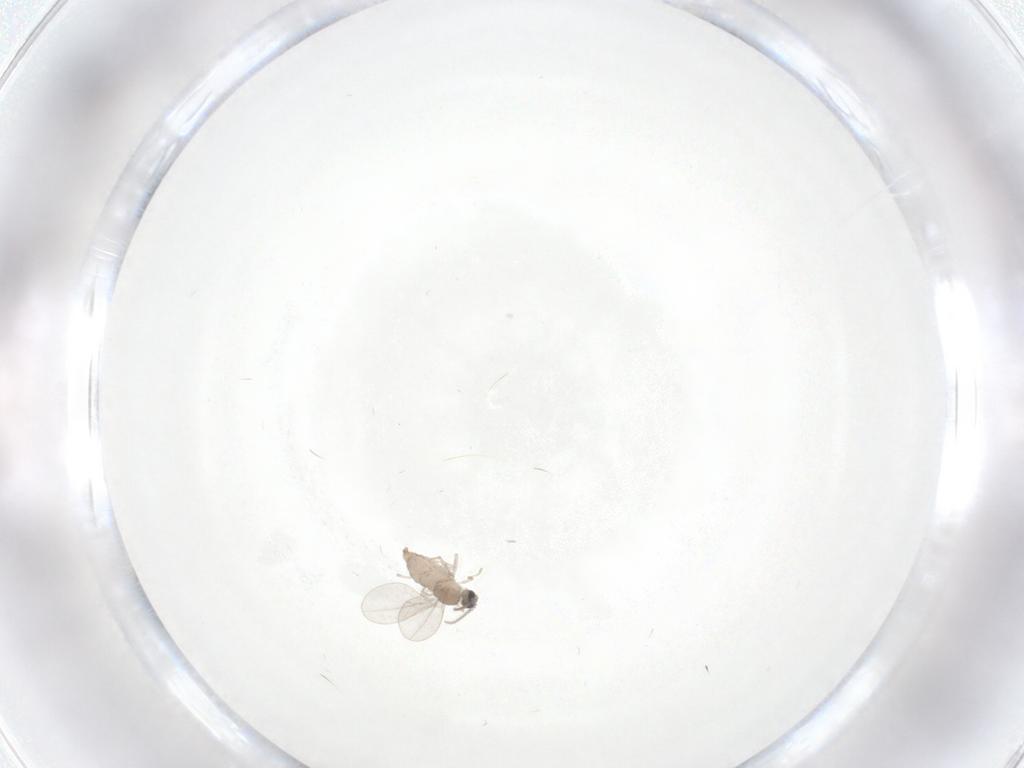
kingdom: Animalia
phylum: Arthropoda
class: Insecta
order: Diptera
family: Cecidomyiidae
